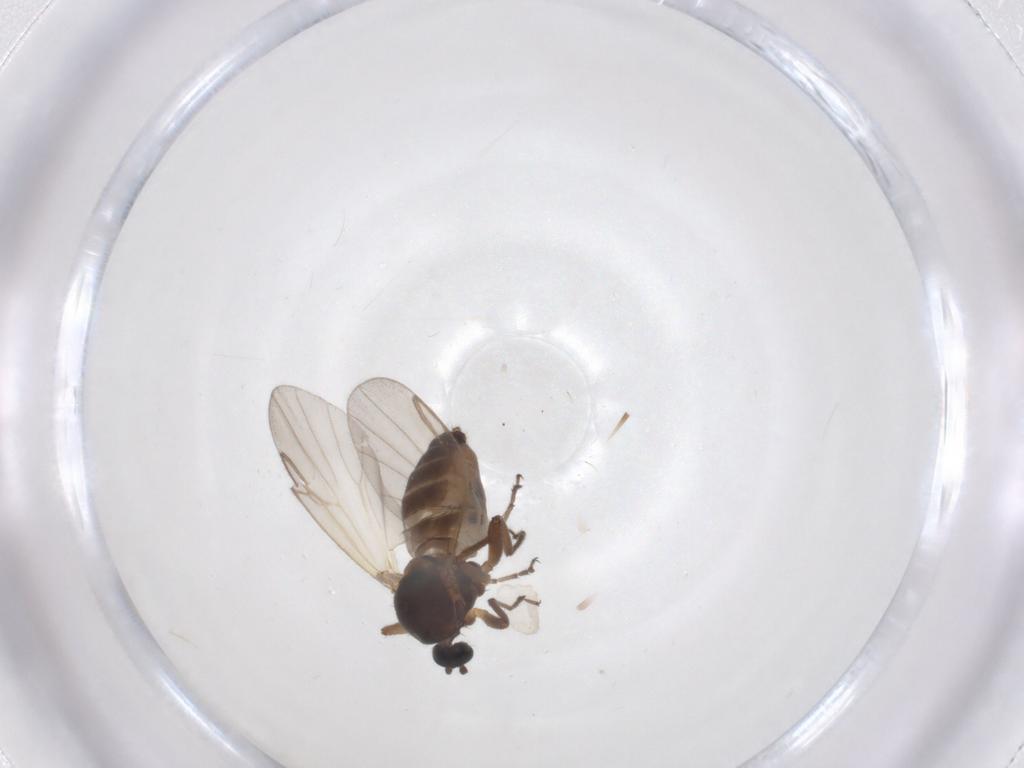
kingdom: Animalia
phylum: Arthropoda
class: Insecta
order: Diptera
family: Ceratopogonidae
